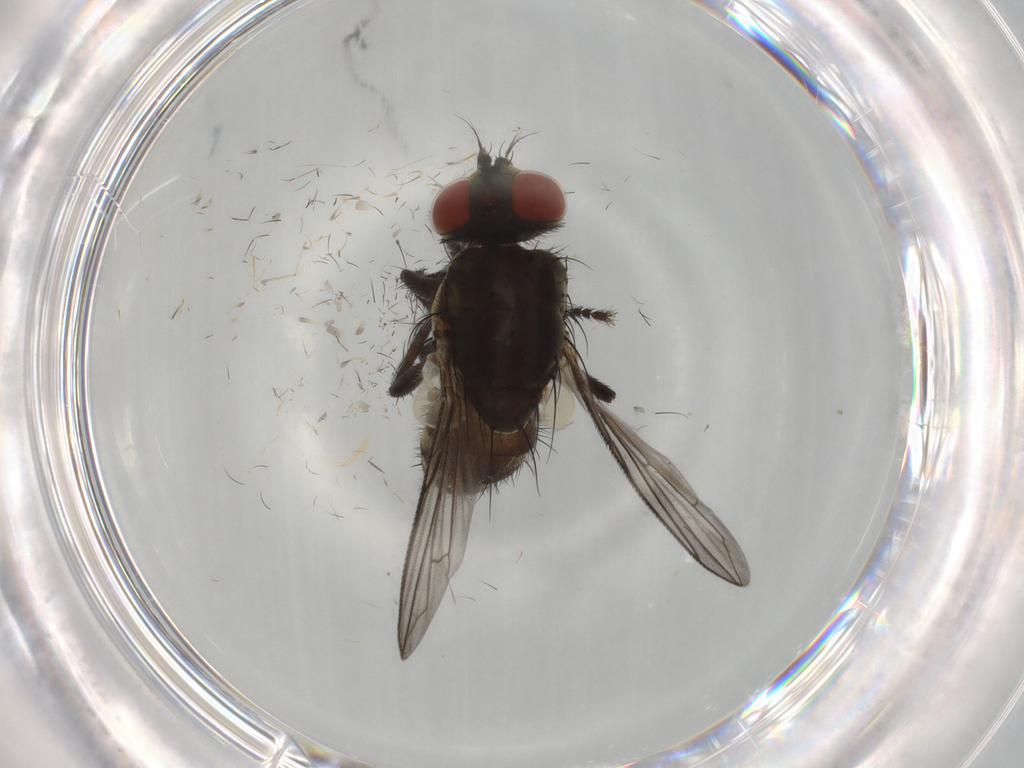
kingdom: Animalia
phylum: Arthropoda
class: Insecta
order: Diptera
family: Sarcophagidae
